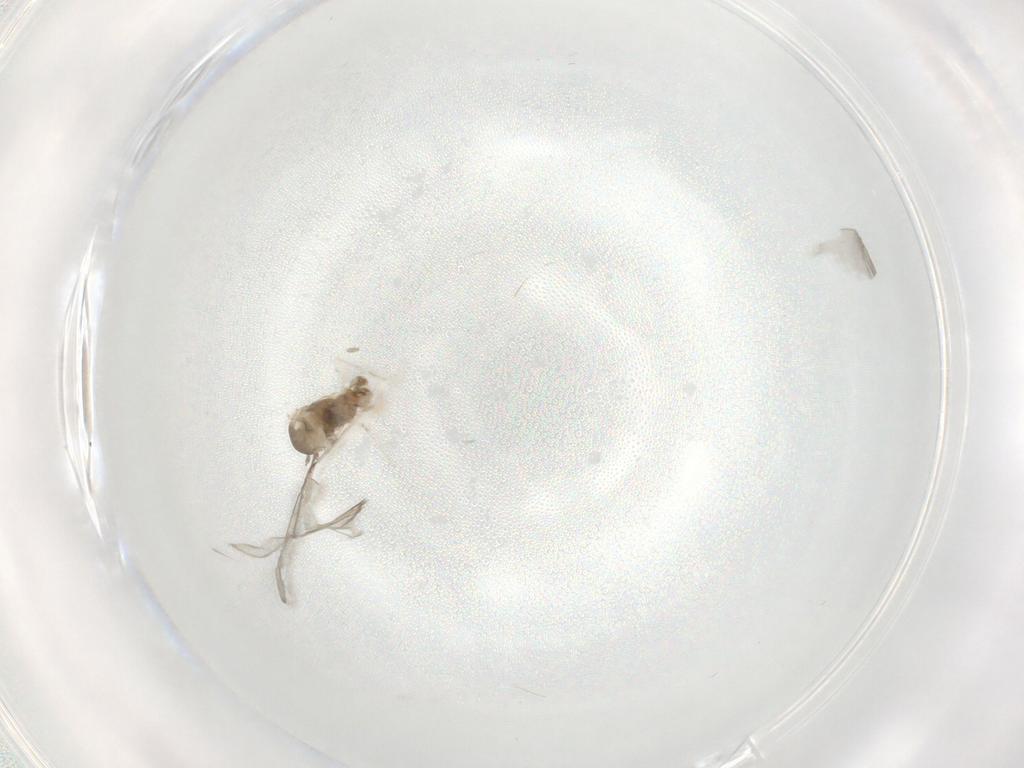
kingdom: Animalia
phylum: Arthropoda
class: Insecta
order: Diptera
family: Cecidomyiidae
